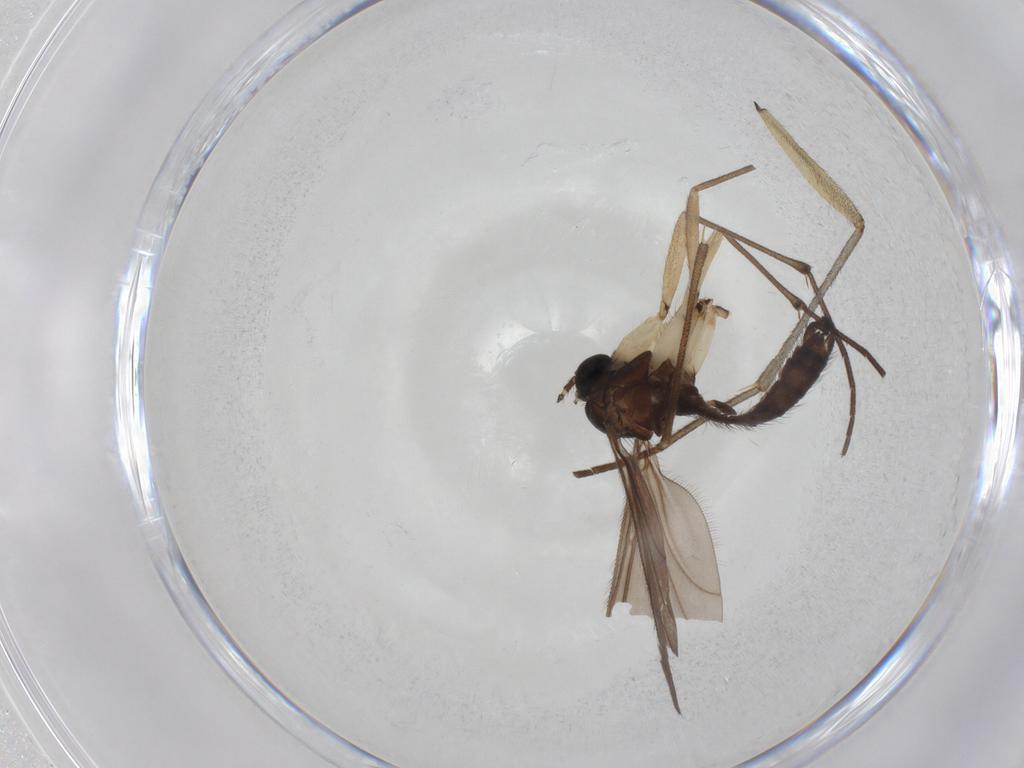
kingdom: Animalia
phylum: Arthropoda
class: Insecta
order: Diptera
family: Sciaridae
